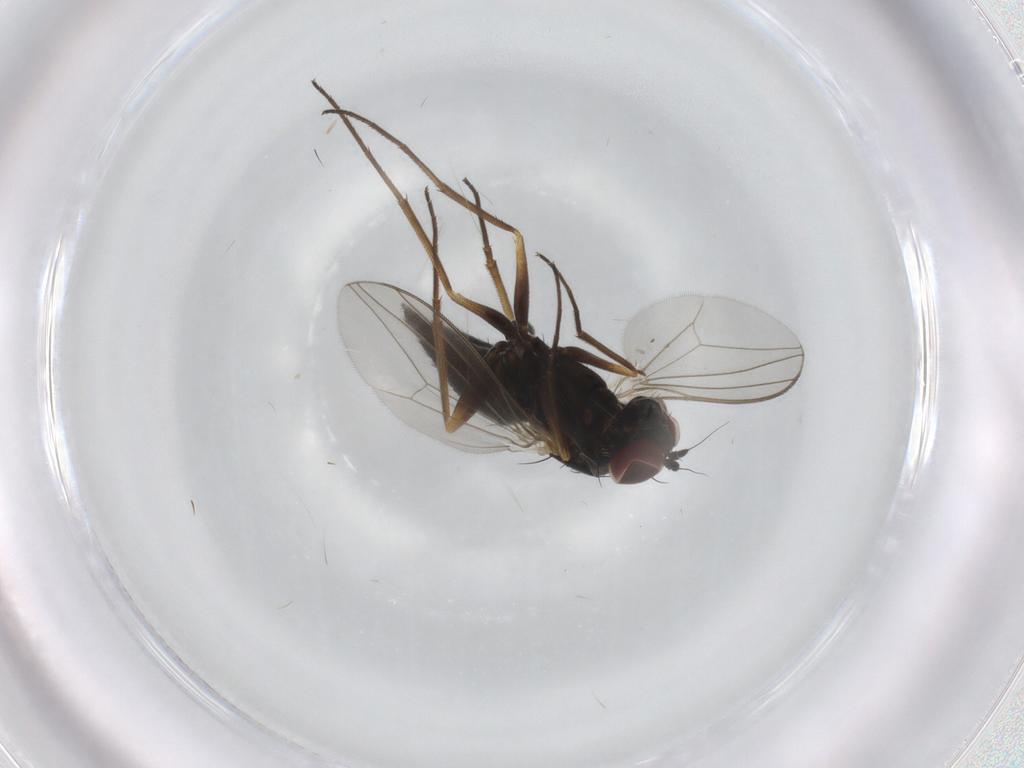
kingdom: Animalia
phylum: Arthropoda
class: Insecta
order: Diptera
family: Dolichopodidae
